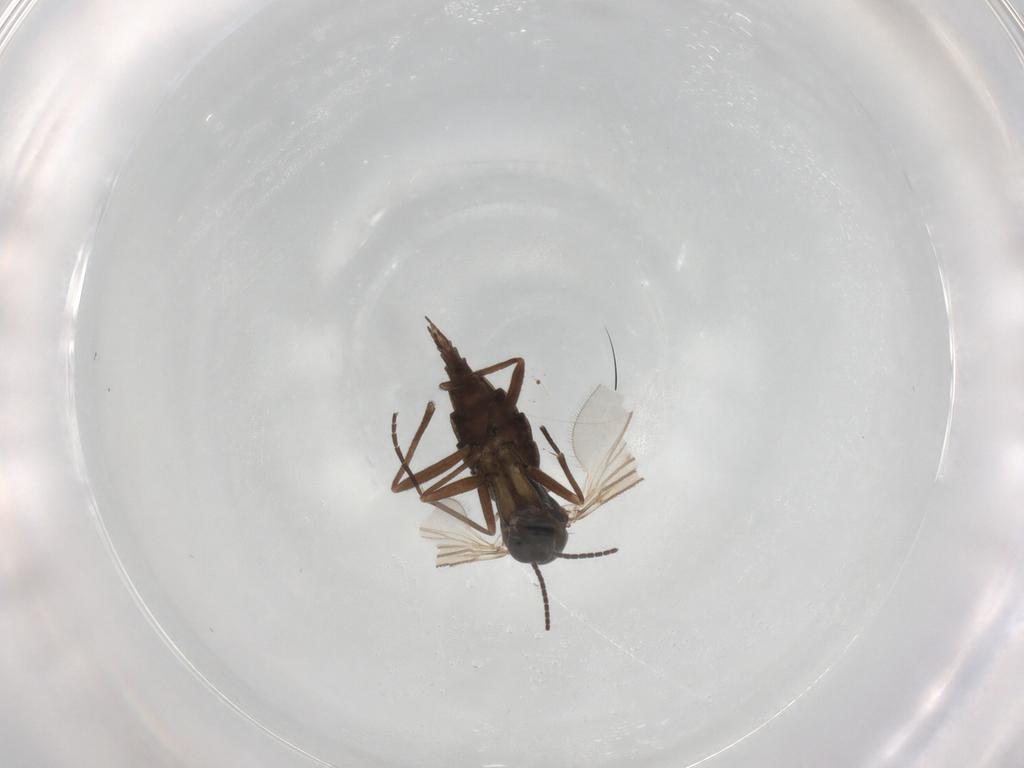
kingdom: Animalia
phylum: Arthropoda
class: Insecta
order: Diptera
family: Sciaridae
